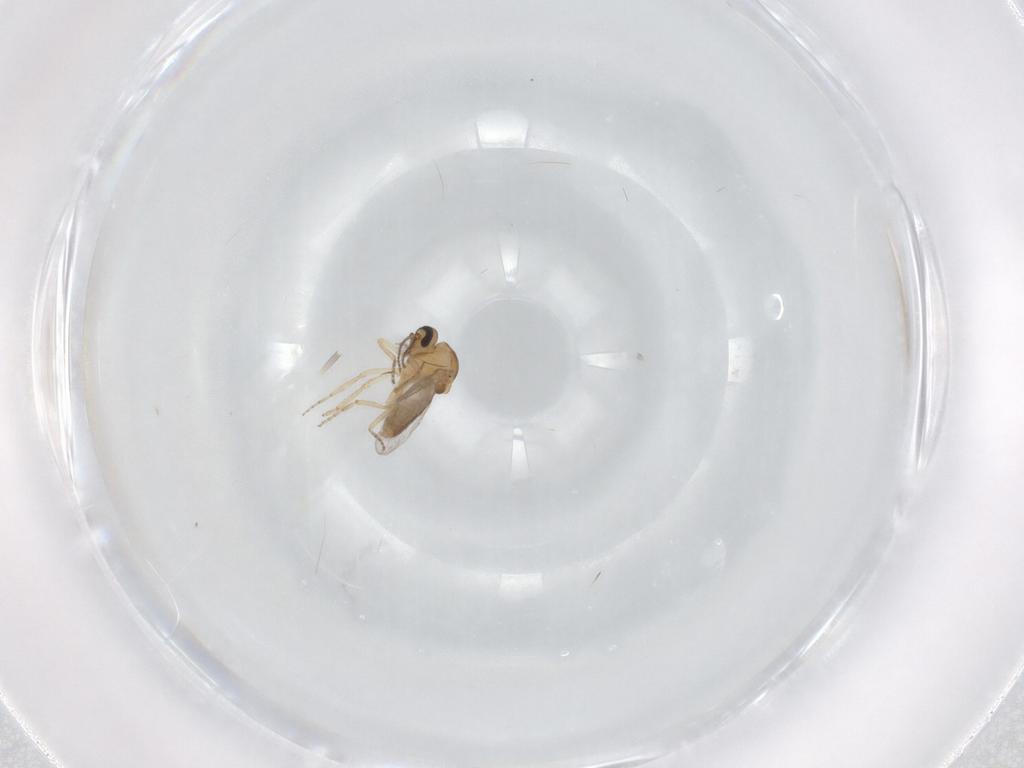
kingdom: Animalia
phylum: Arthropoda
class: Insecta
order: Diptera
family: Ceratopogonidae
